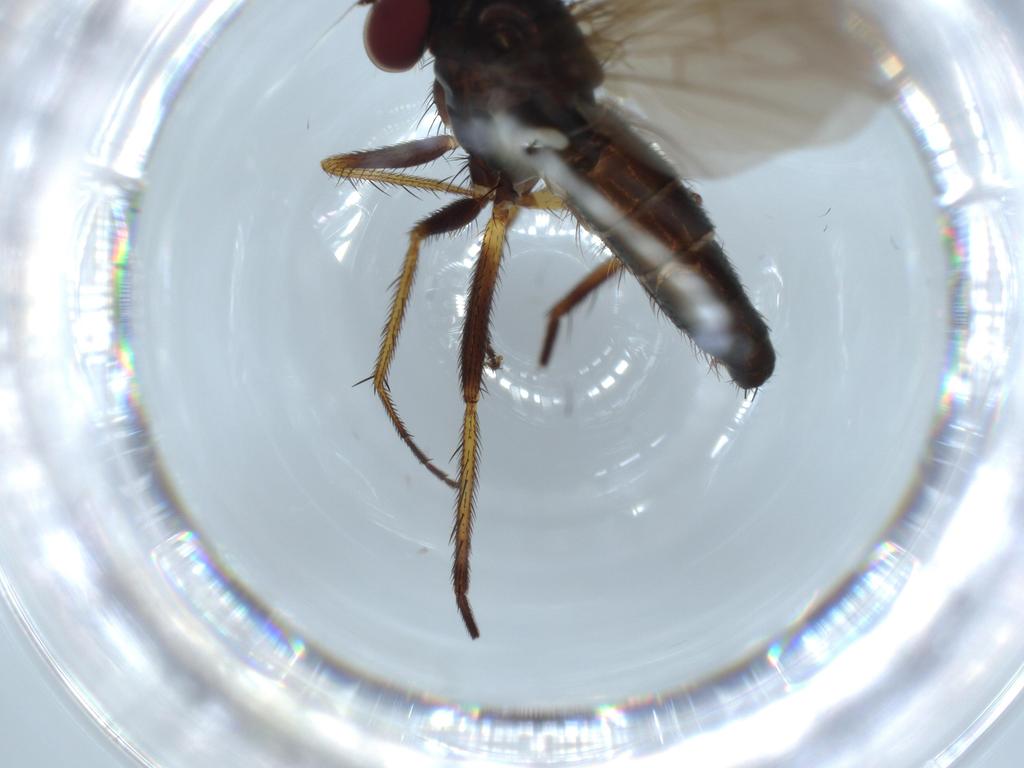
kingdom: Animalia
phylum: Arthropoda
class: Insecta
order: Diptera
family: Dolichopodidae
